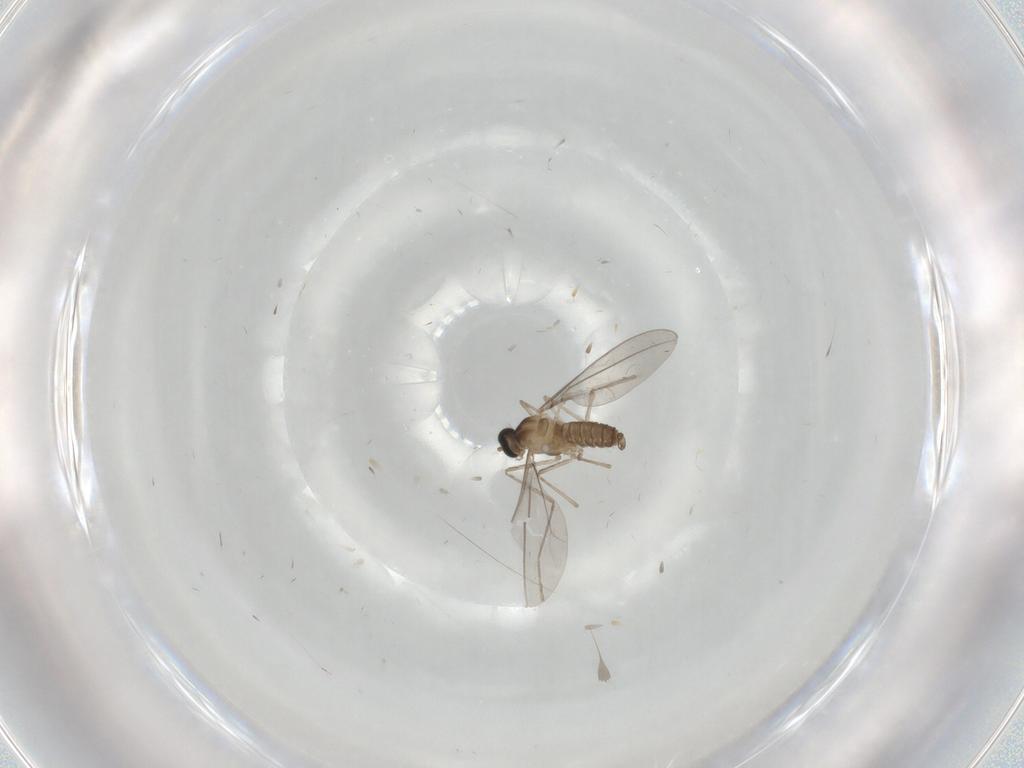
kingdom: Animalia
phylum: Arthropoda
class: Insecta
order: Diptera
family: Cecidomyiidae
